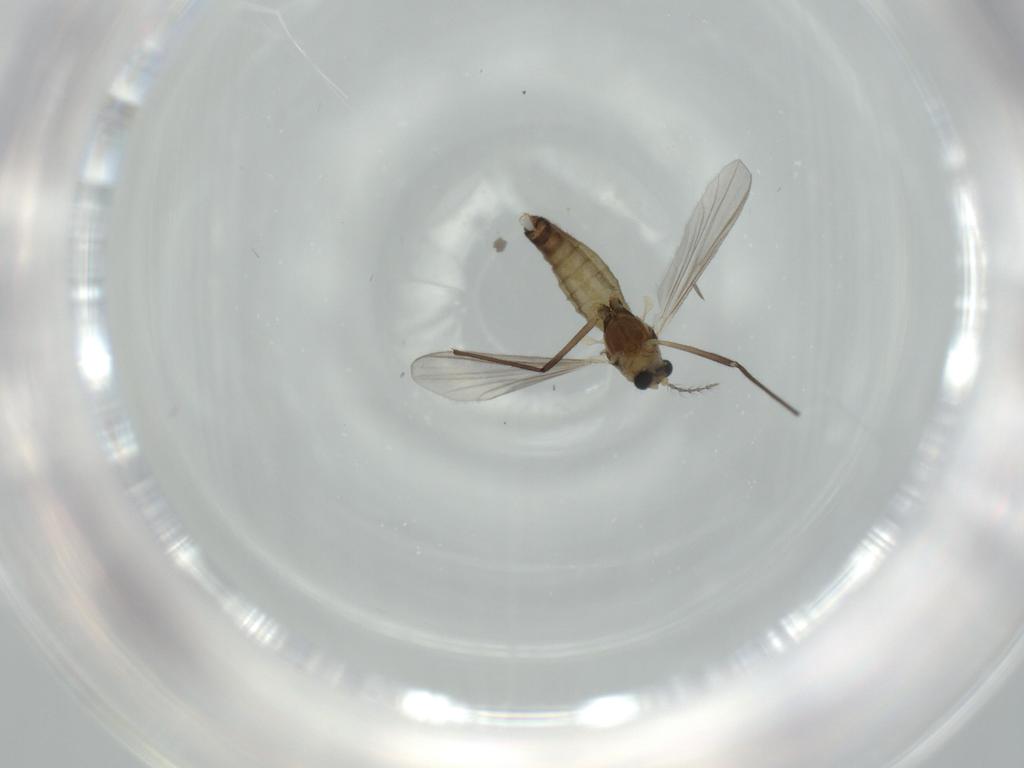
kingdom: Animalia
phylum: Arthropoda
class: Insecta
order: Diptera
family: Chironomidae
